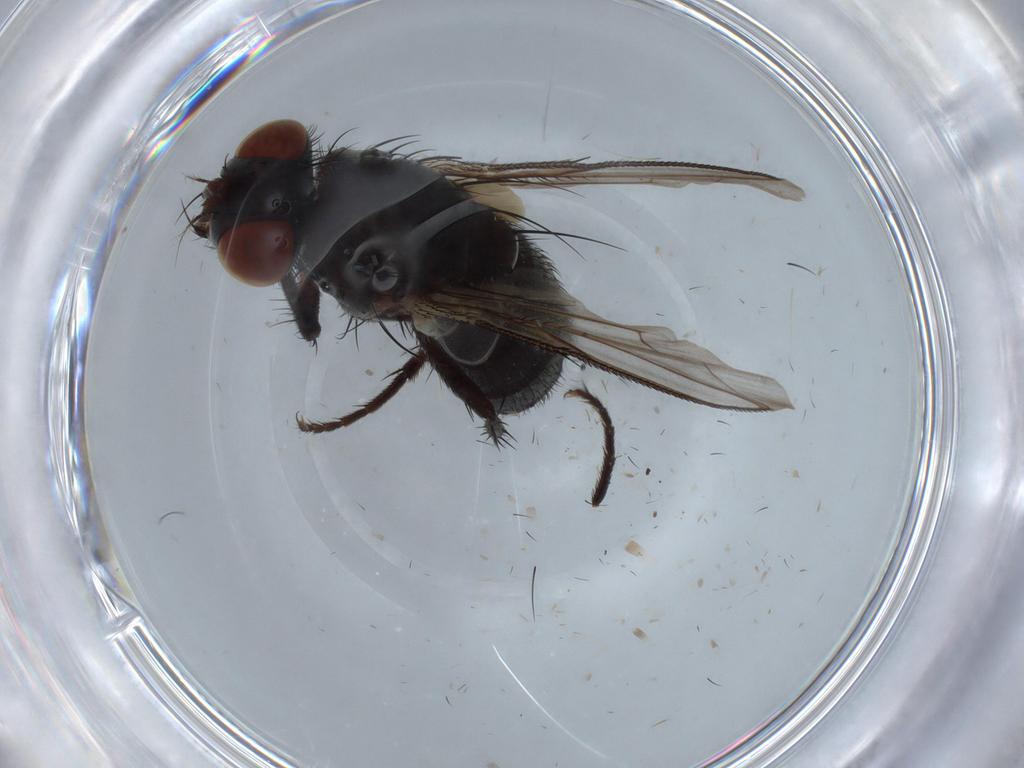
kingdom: Animalia
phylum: Arthropoda
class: Insecta
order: Diptera
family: Sarcophagidae
